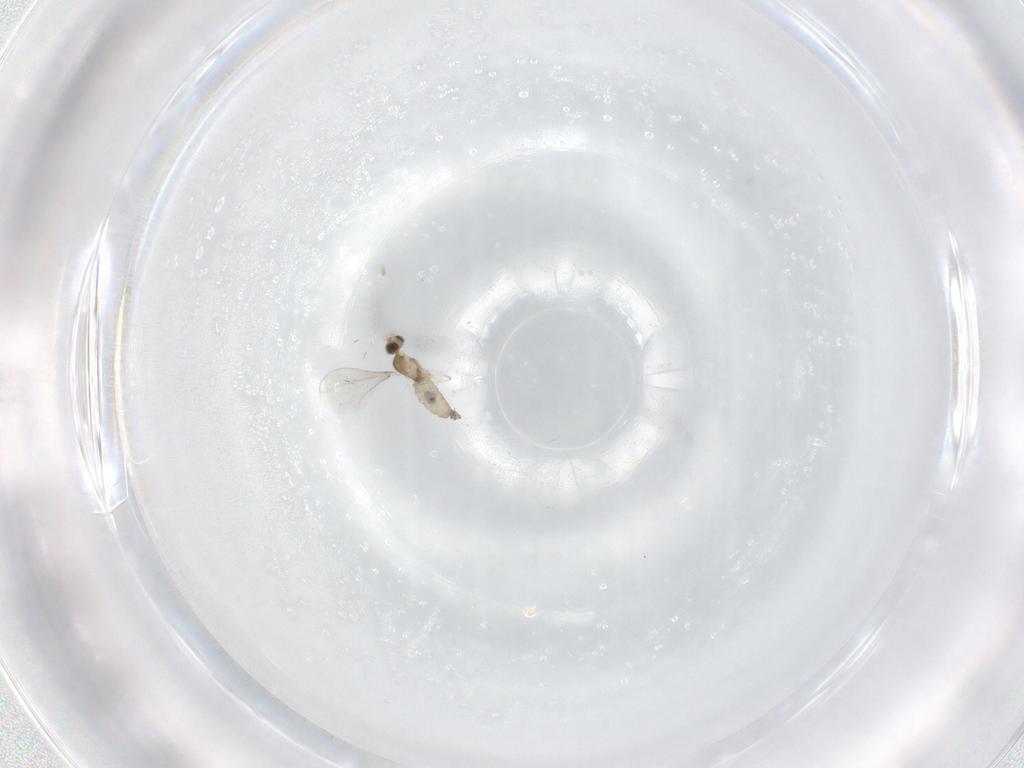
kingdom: Animalia
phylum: Arthropoda
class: Insecta
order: Diptera
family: Cecidomyiidae
